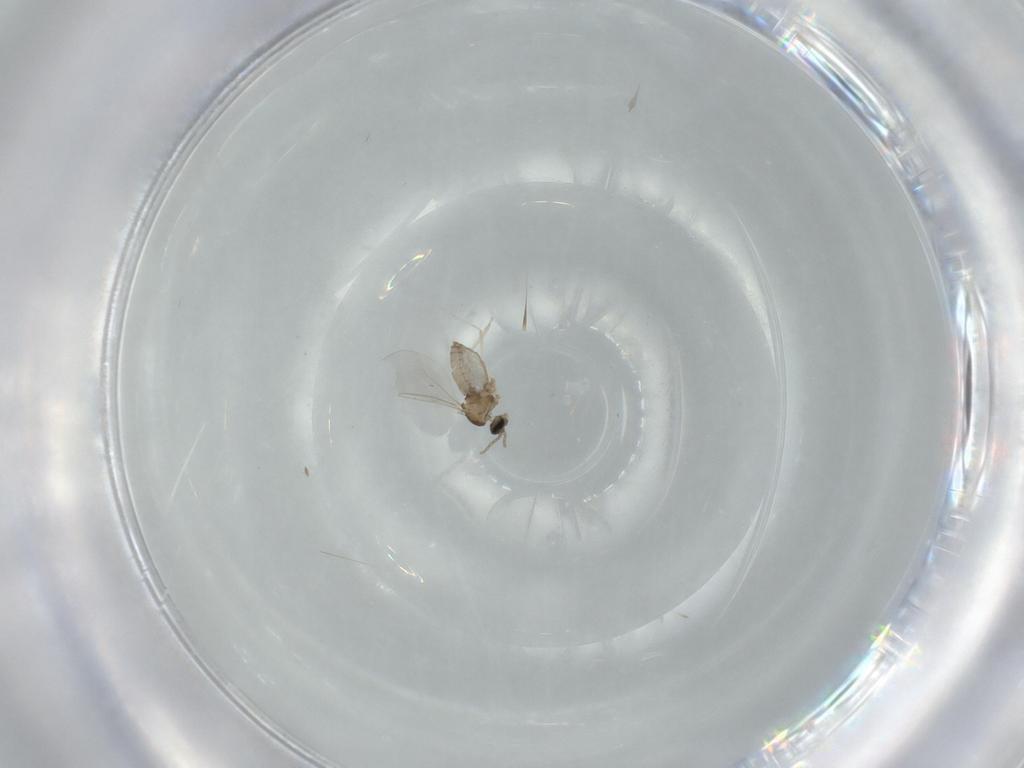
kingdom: Animalia
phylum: Arthropoda
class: Insecta
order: Diptera
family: Cecidomyiidae
